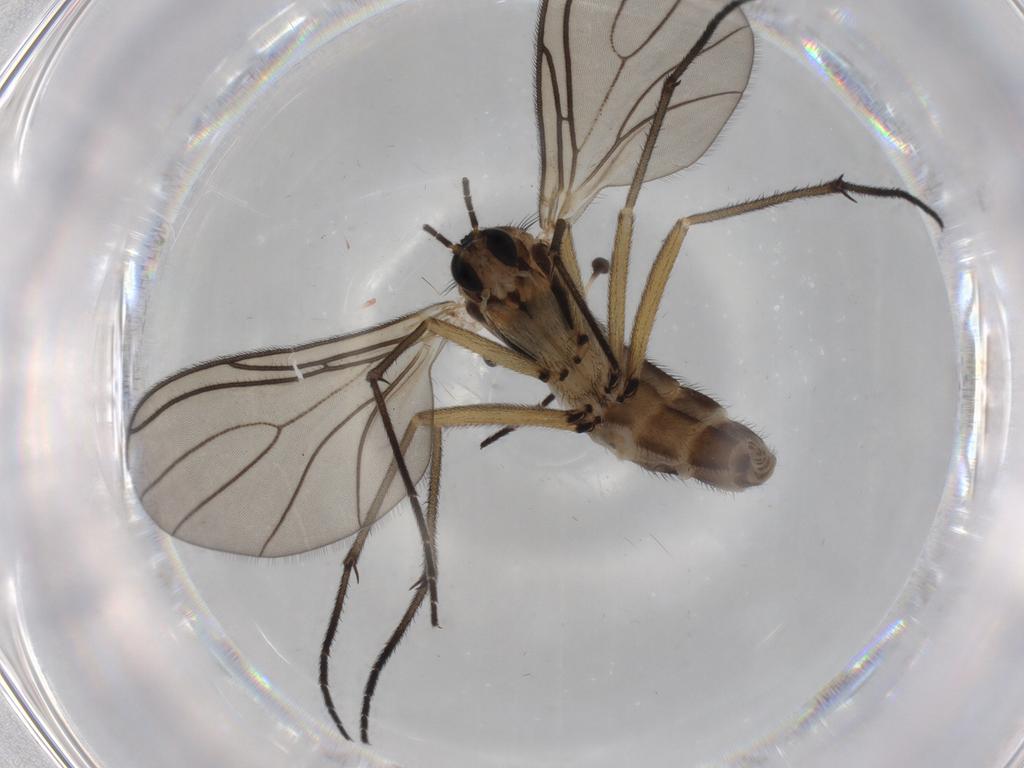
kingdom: Animalia
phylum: Arthropoda
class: Insecta
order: Diptera
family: Sciaridae
